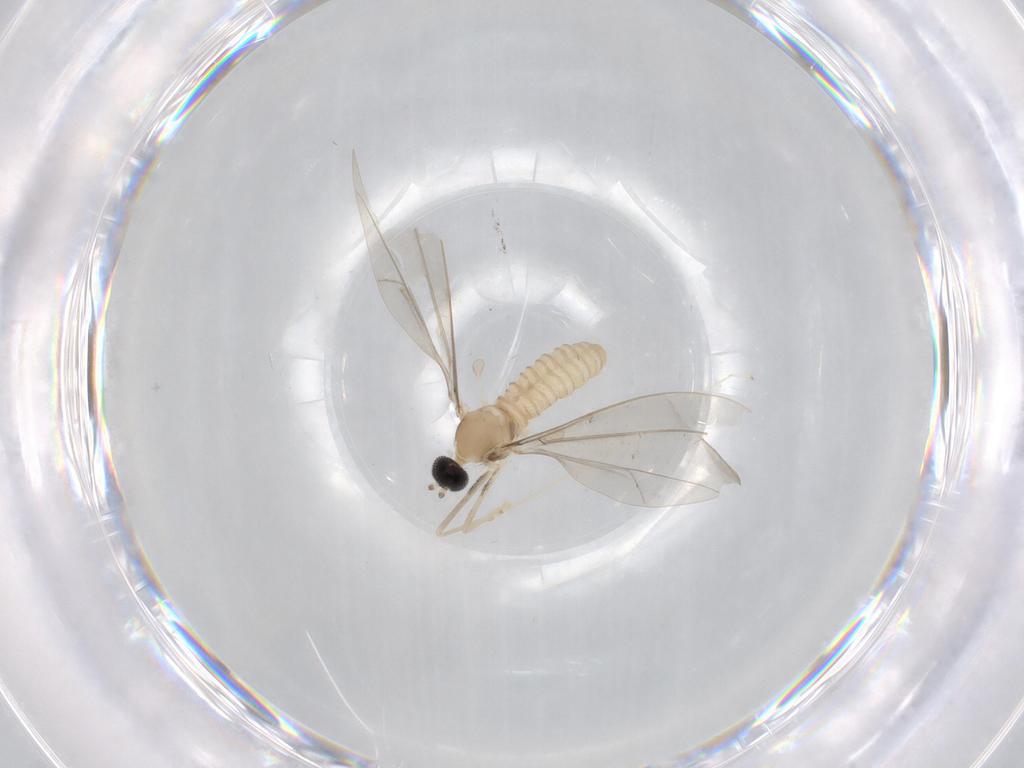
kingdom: Animalia
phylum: Arthropoda
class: Insecta
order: Diptera
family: Cecidomyiidae
